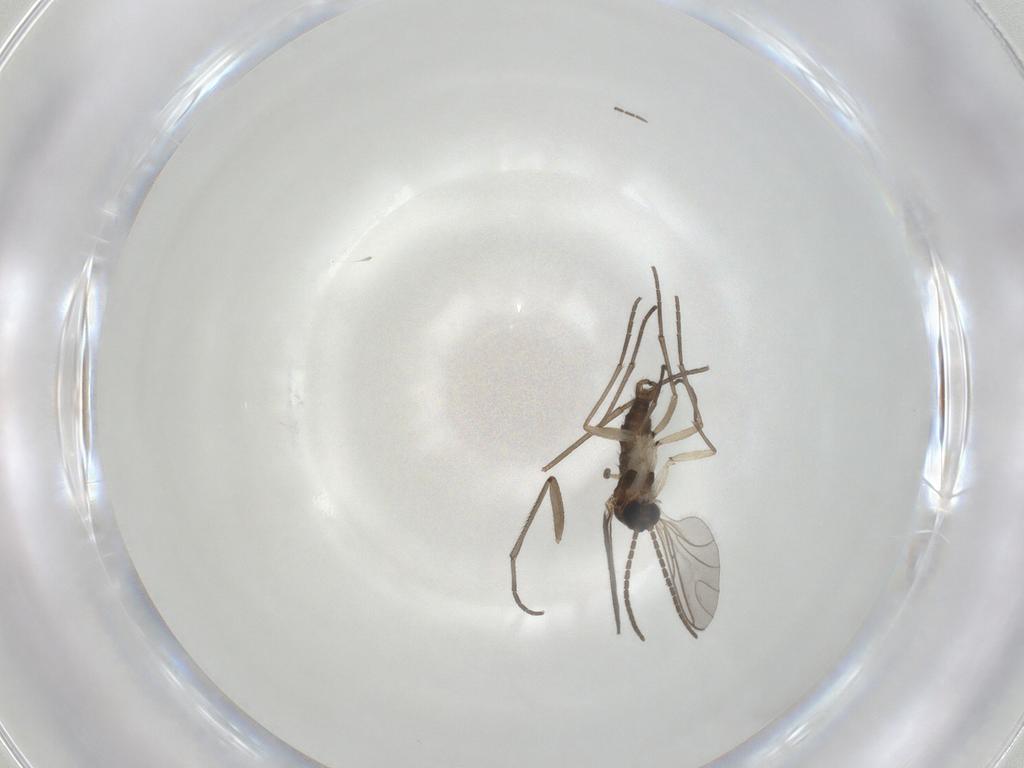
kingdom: Animalia
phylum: Arthropoda
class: Insecta
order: Diptera
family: Sciaridae
